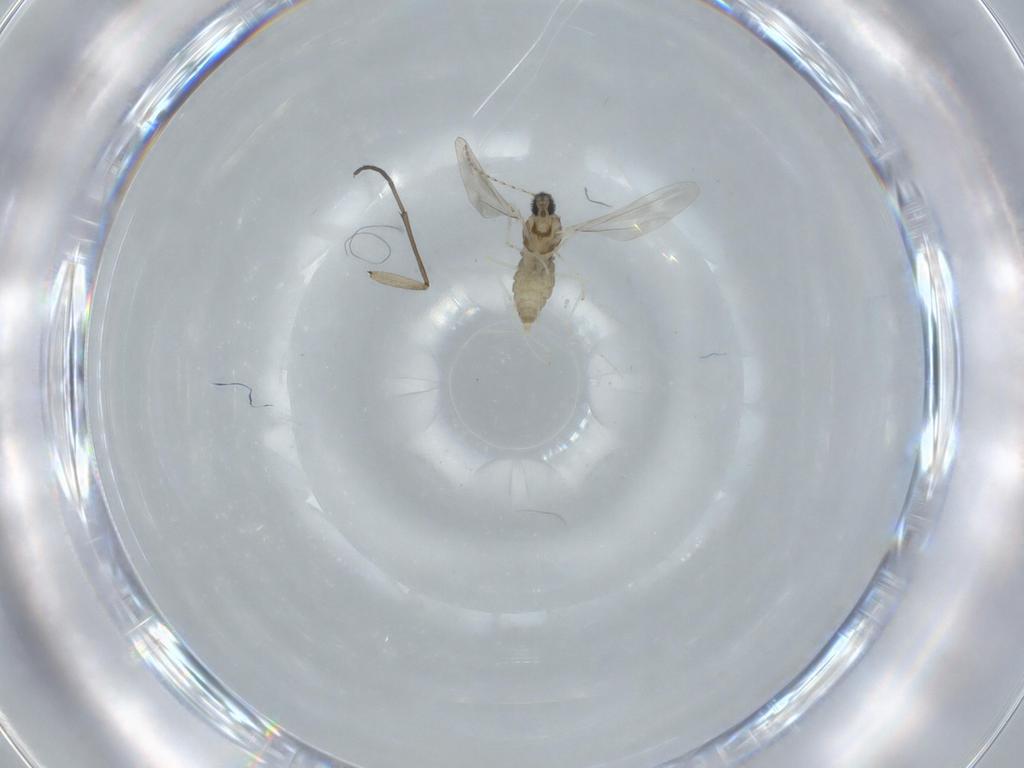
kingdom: Animalia
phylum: Arthropoda
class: Insecta
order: Diptera
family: Cecidomyiidae
